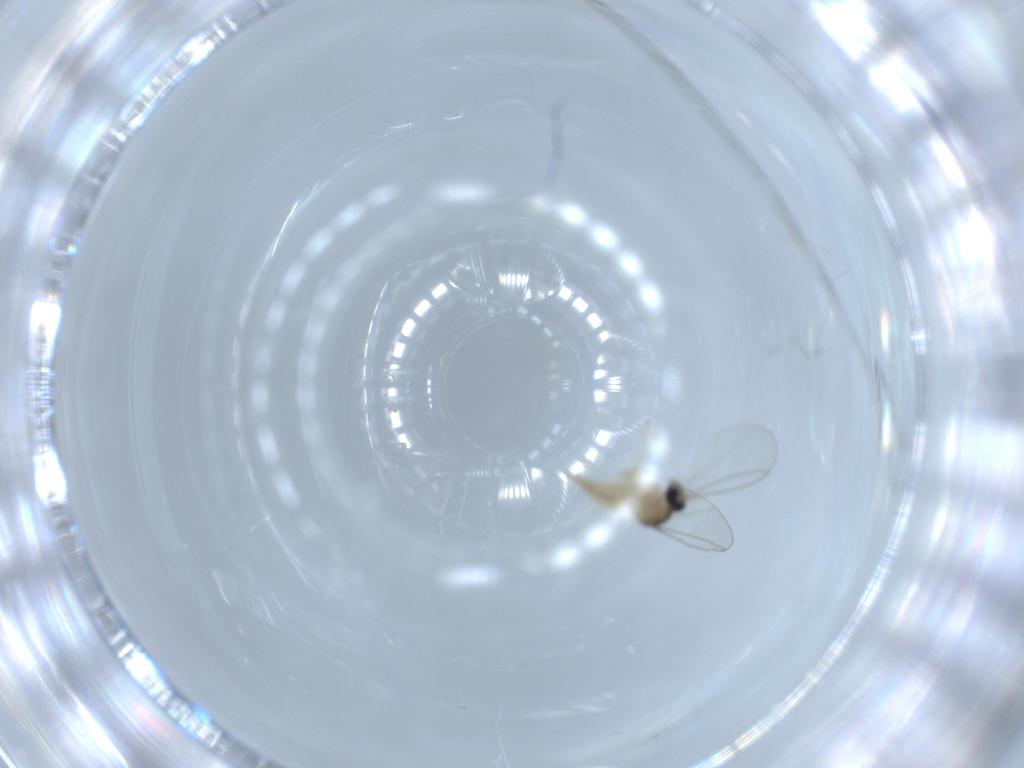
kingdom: Animalia
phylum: Arthropoda
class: Insecta
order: Diptera
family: Cecidomyiidae
